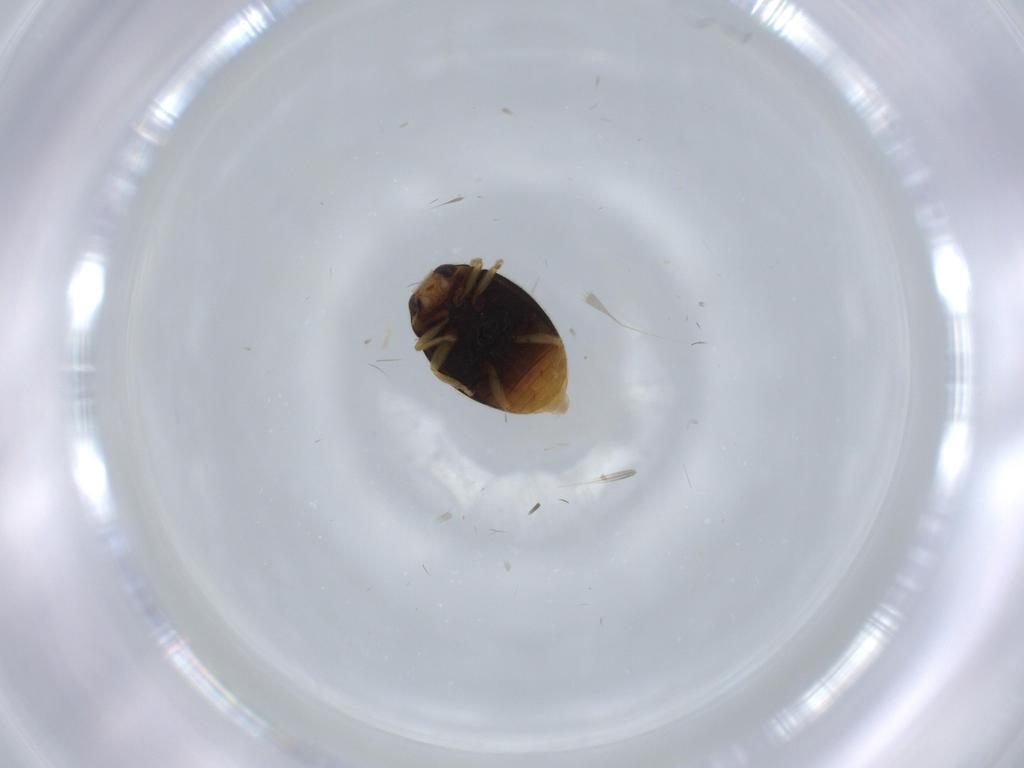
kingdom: Animalia
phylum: Arthropoda
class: Insecta
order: Coleoptera
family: Coccinellidae
